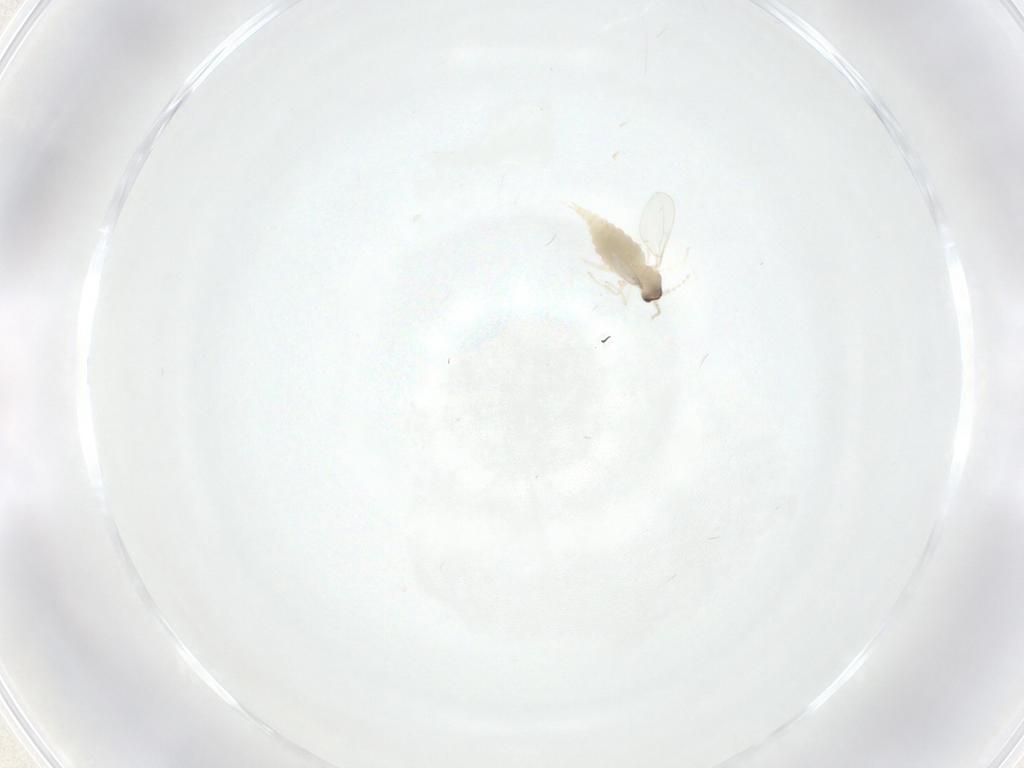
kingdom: Animalia
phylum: Arthropoda
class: Insecta
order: Diptera
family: Cecidomyiidae
